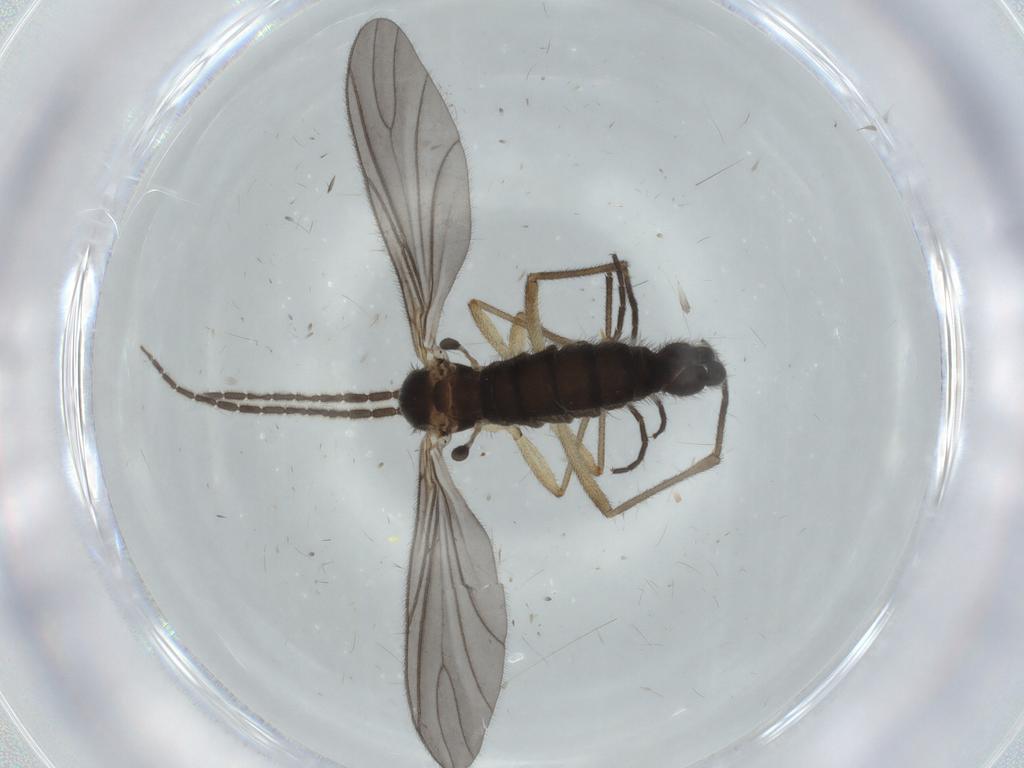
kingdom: Animalia
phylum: Arthropoda
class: Insecta
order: Diptera
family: Sciaridae
